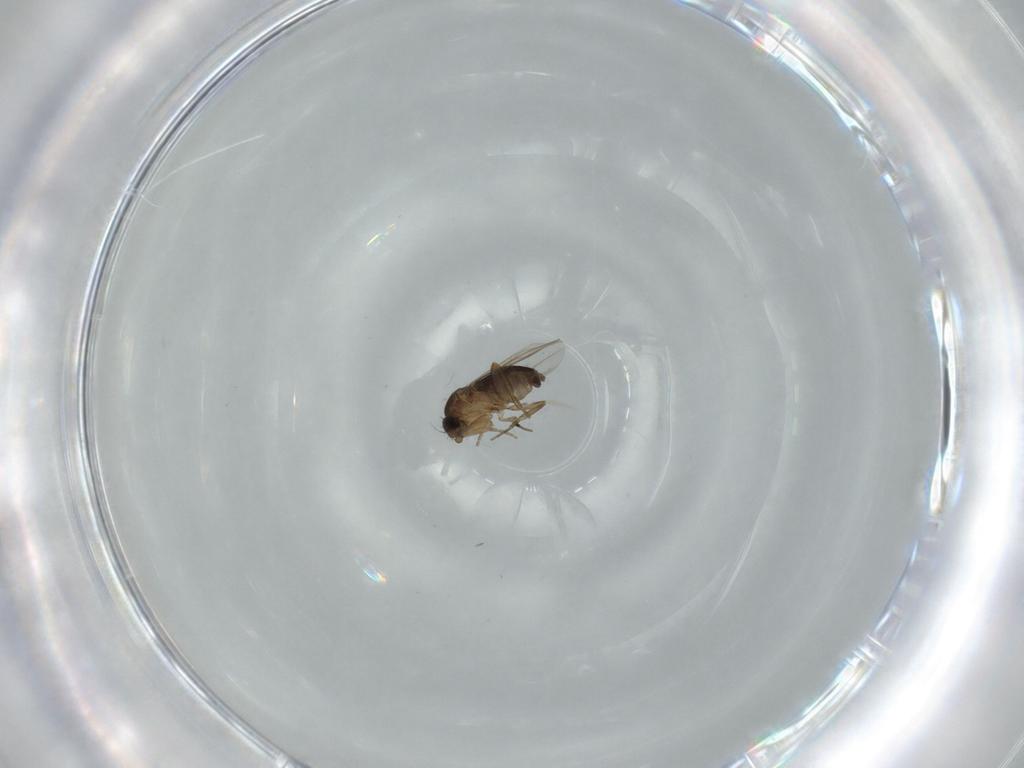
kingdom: Animalia
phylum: Arthropoda
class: Insecta
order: Diptera
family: Phoridae
